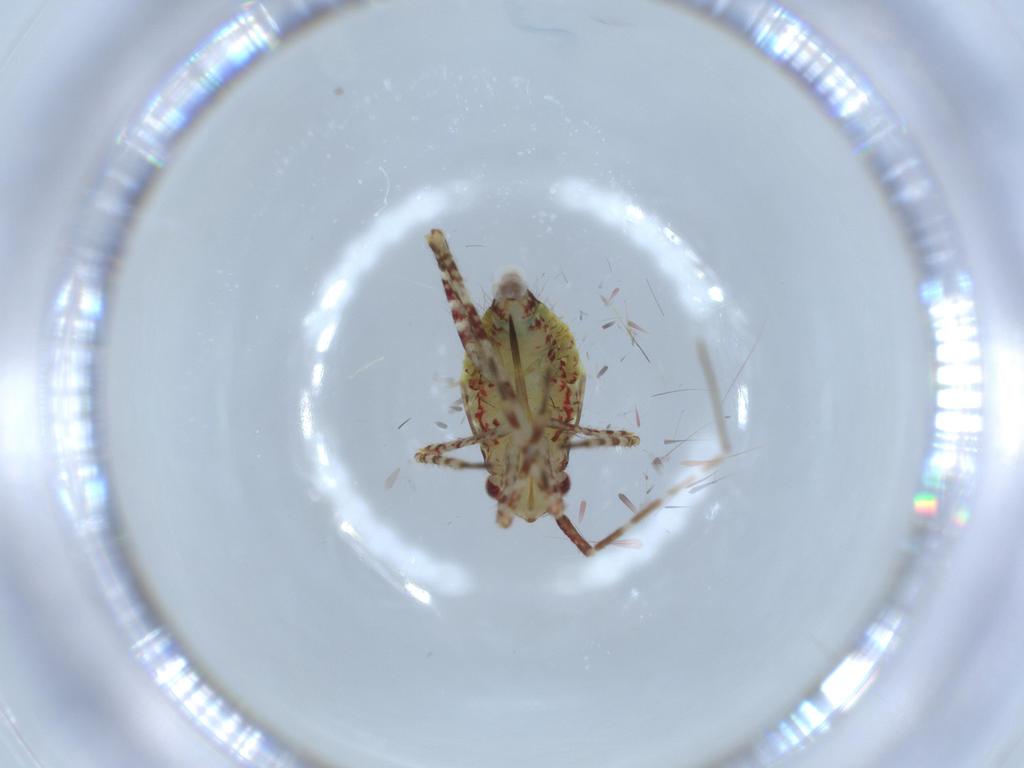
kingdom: Animalia
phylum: Arthropoda
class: Insecta
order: Hemiptera
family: Miridae
